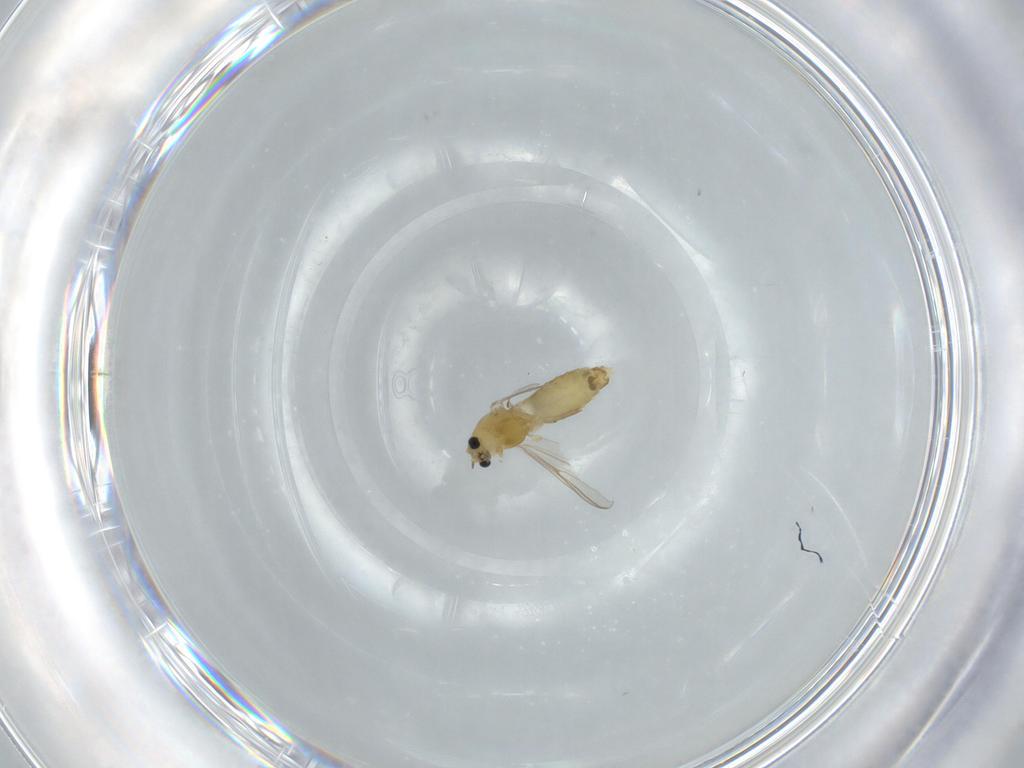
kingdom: Animalia
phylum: Arthropoda
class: Insecta
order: Diptera
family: Chironomidae
